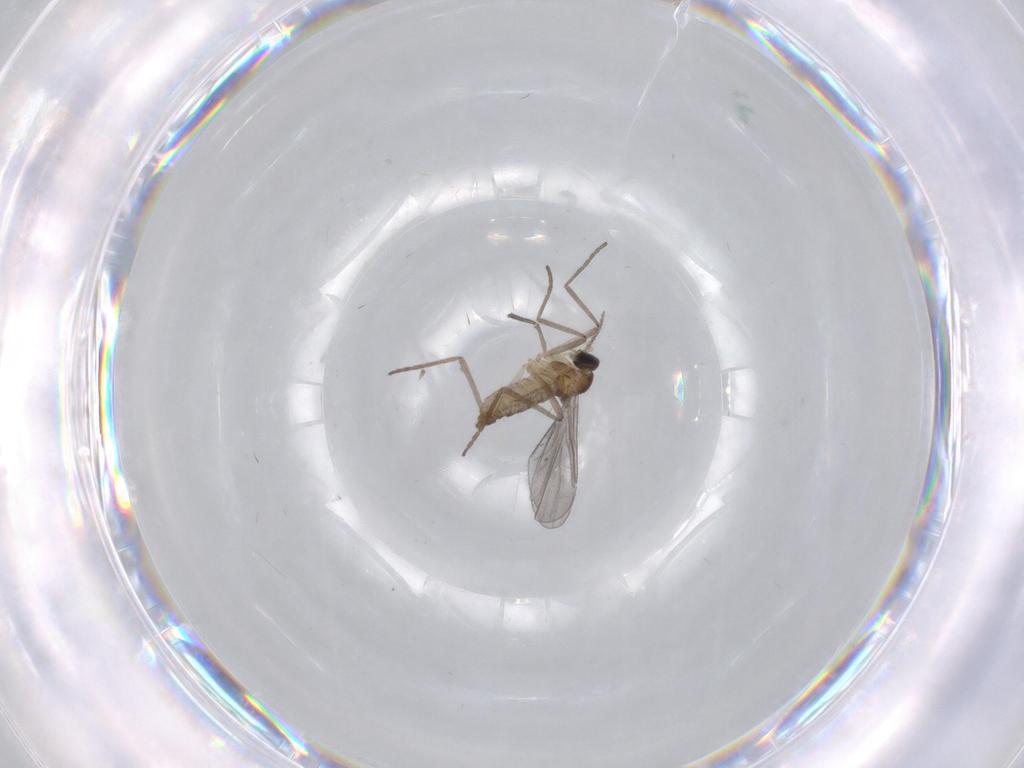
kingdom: Animalia
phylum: Arthropoda
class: Insecta
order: Diptera
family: Cecidomyiidae
